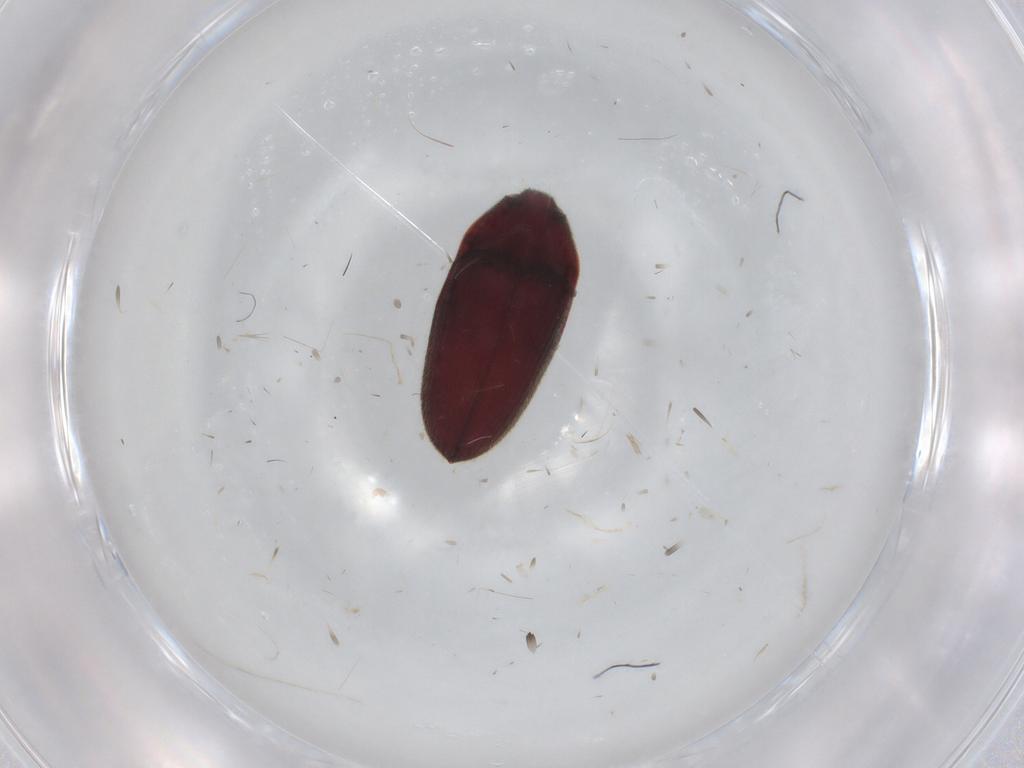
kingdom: Animalia
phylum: Arthropoda
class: Insecta
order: Coleoptera
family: Throscidae
